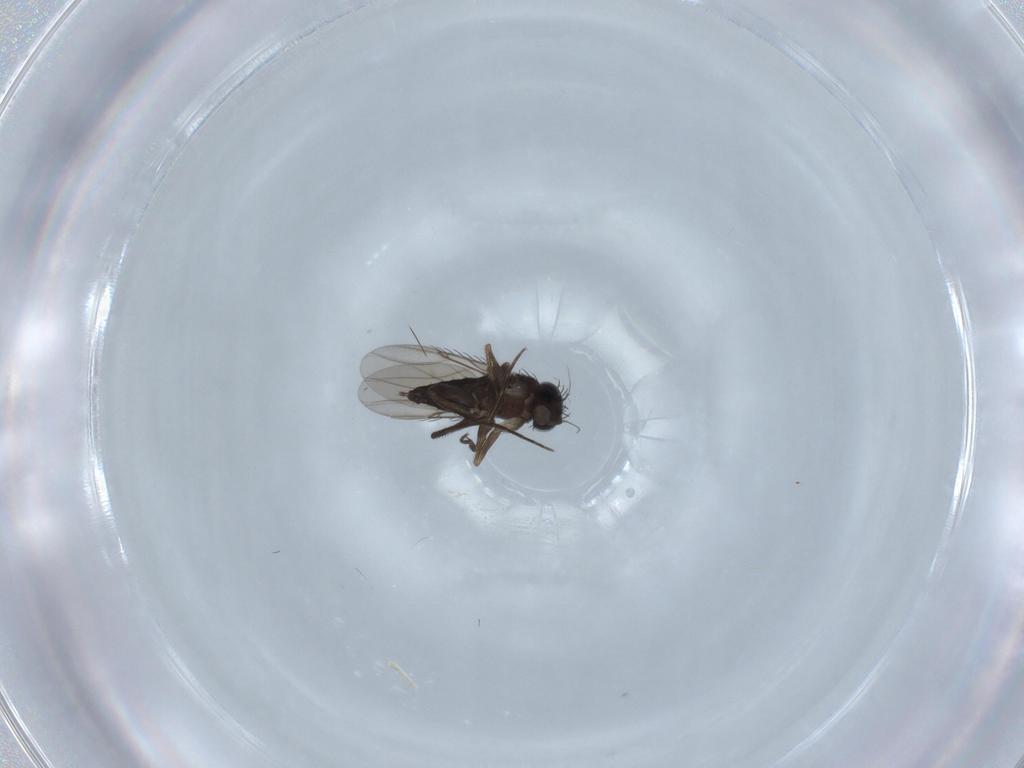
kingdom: Animalia
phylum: Arthropoda
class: Insecta
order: Diptera
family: Phoridae
